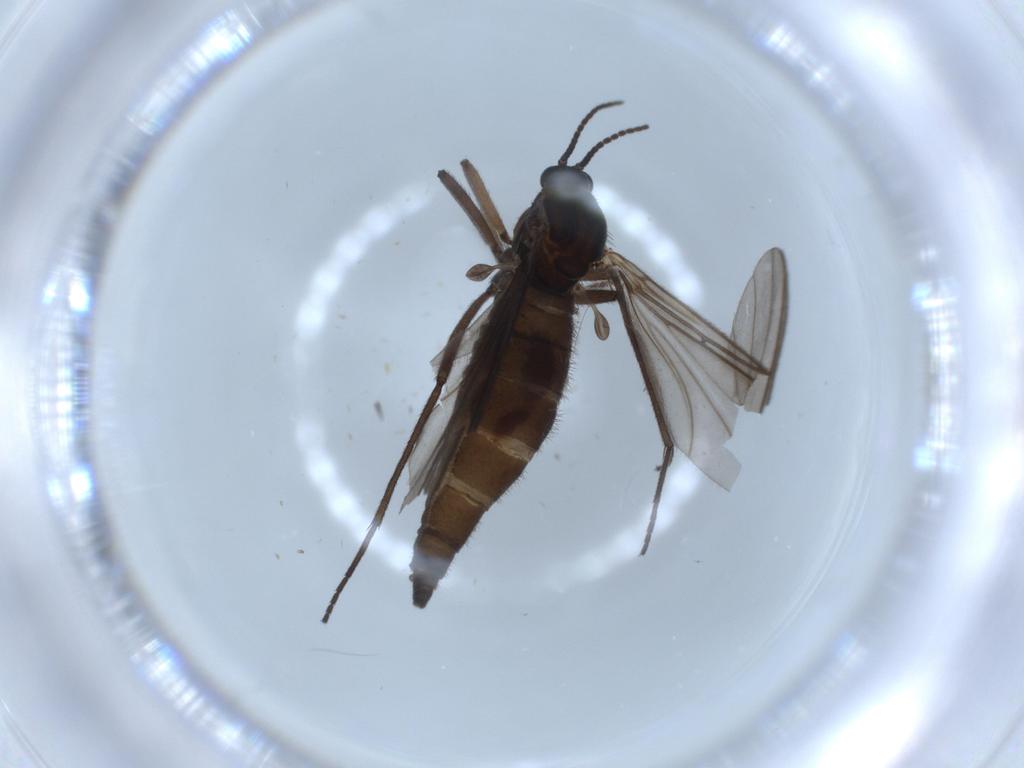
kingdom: Animalia
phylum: Arthropoda
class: Insecta
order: Diptera
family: Sciaridae
